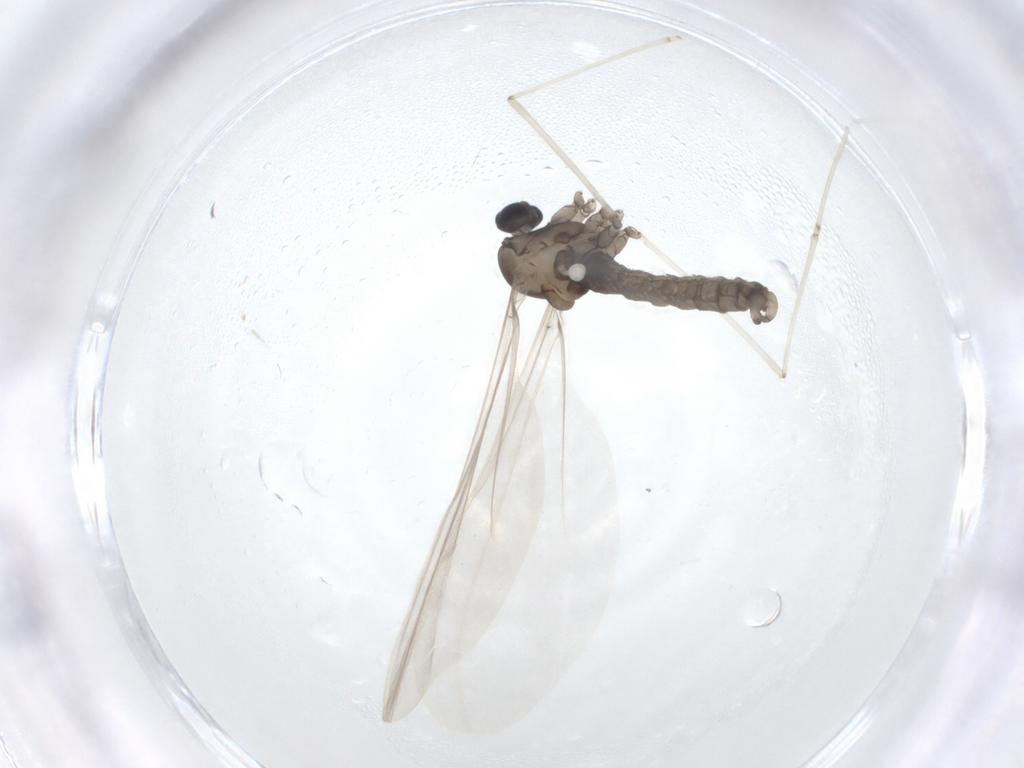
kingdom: Animalia
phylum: Arthropoda
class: Insecta
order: Diptera
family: Cecidomyiidae
